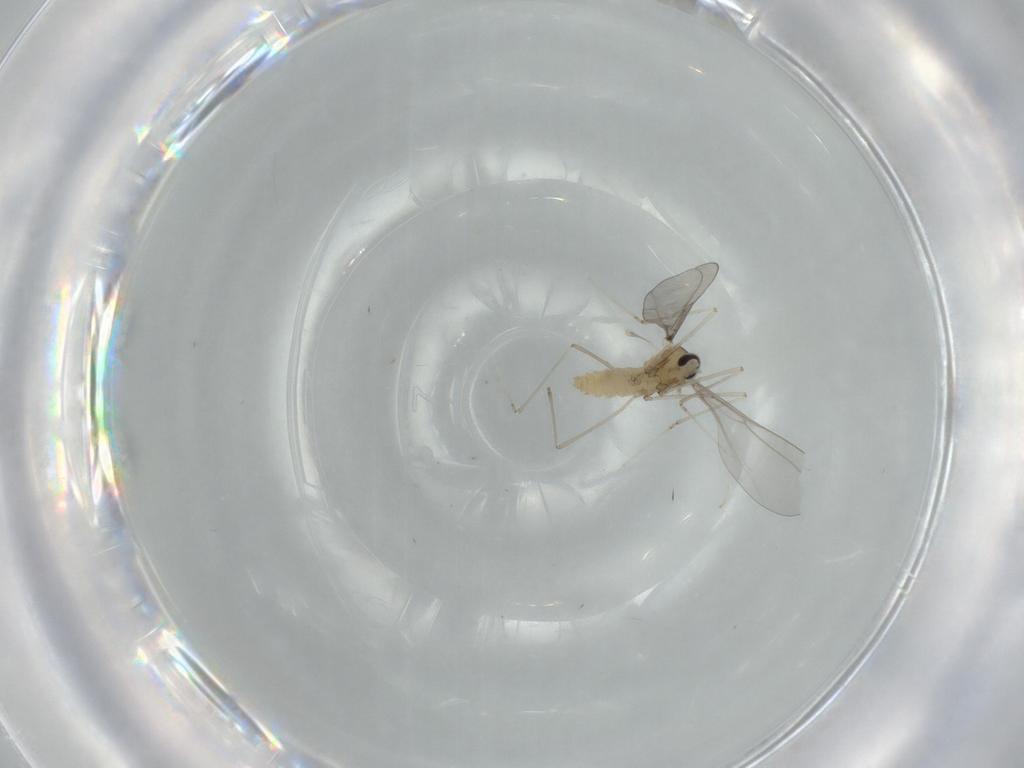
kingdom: Animalia
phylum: Arthropoda
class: Insecta
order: Diptera
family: Cecidomyiidae
